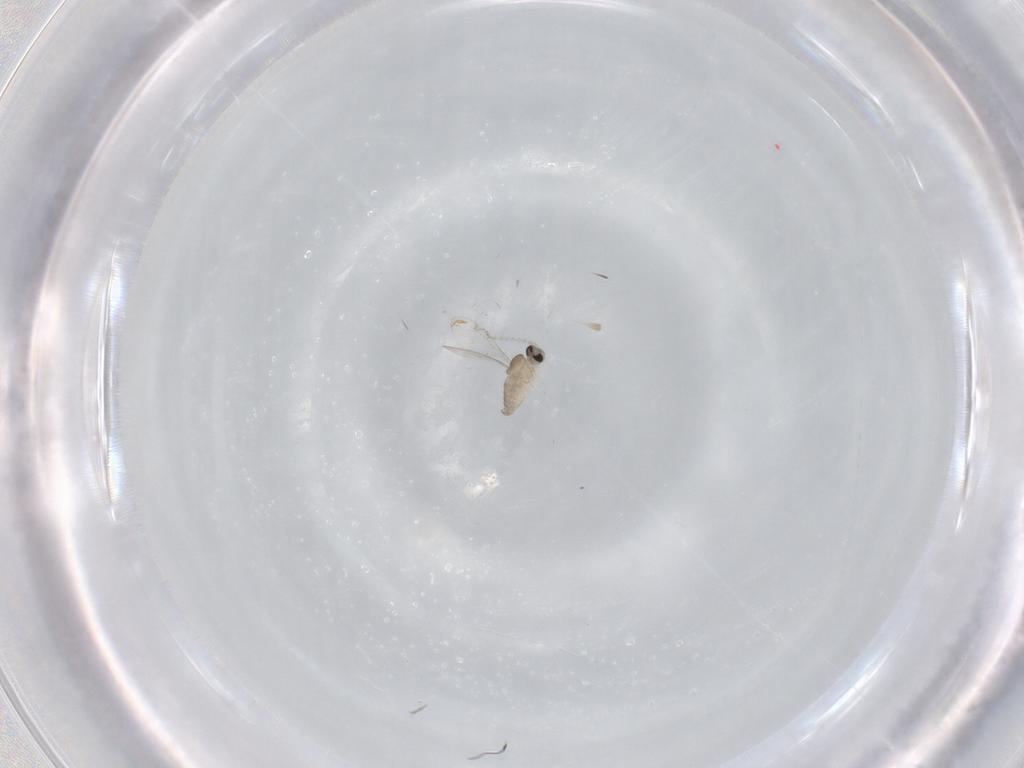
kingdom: Animalia
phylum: Arthropoda
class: Insecta
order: Diptera
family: Cecidomyiidae
